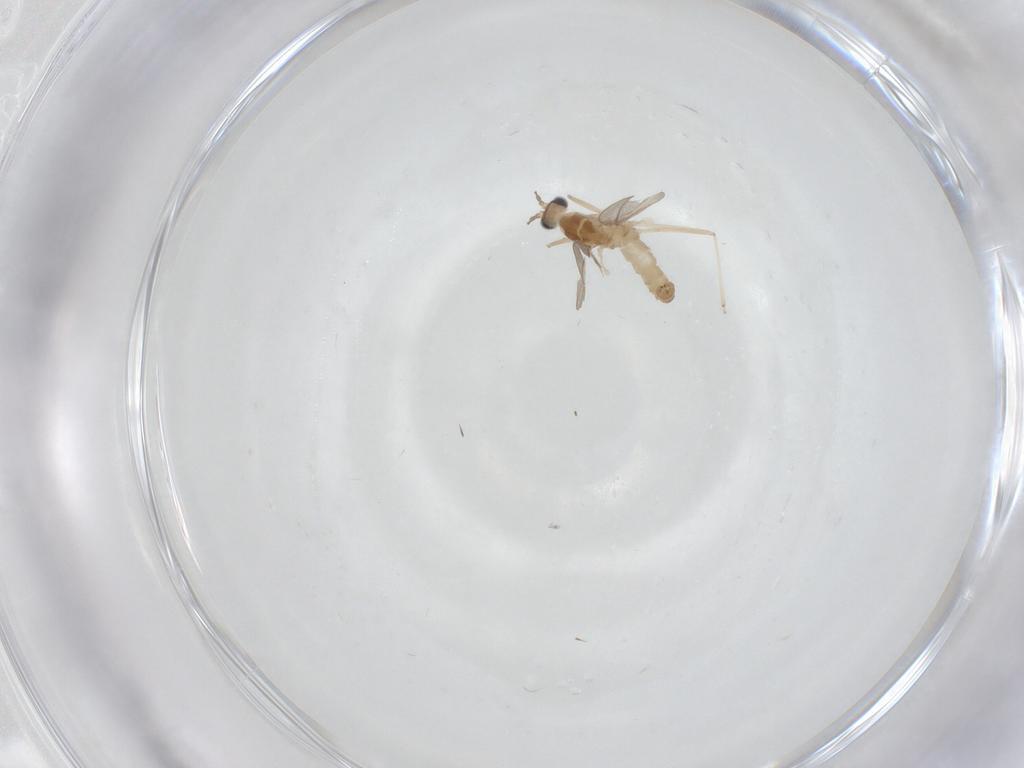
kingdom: Animalia
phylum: Arthropoda
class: Insecta
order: Diptera
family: Cecidomyiidae
